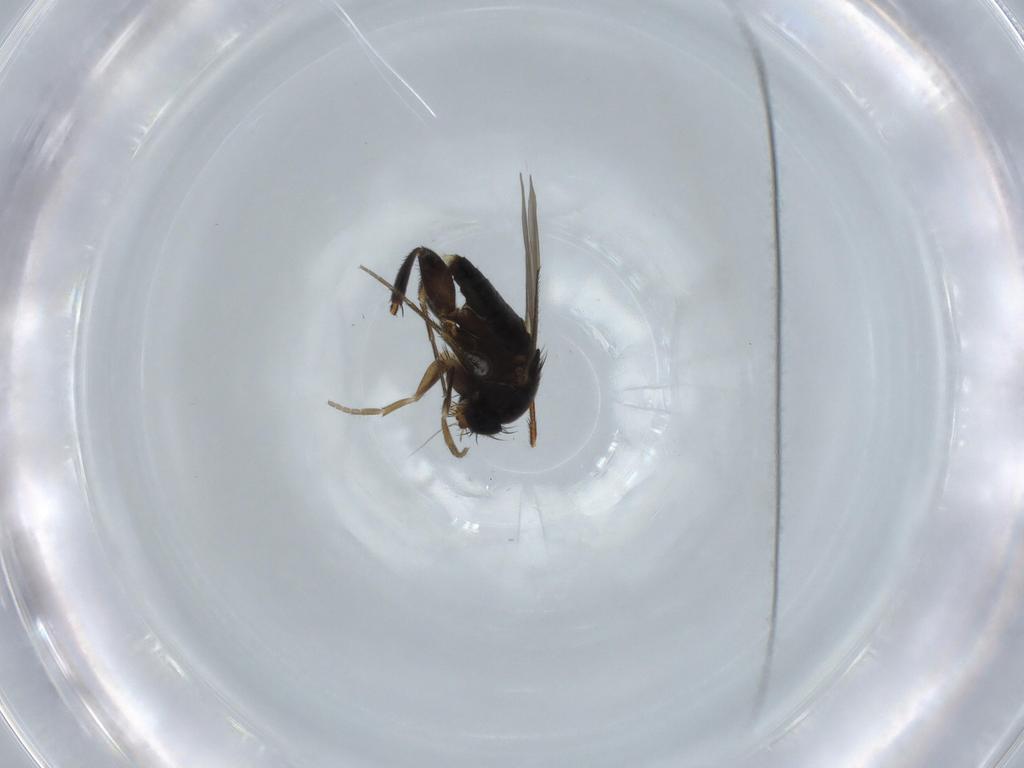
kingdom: Animalia
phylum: Arthropoda
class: Insecta
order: Diptera
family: Phoridae
